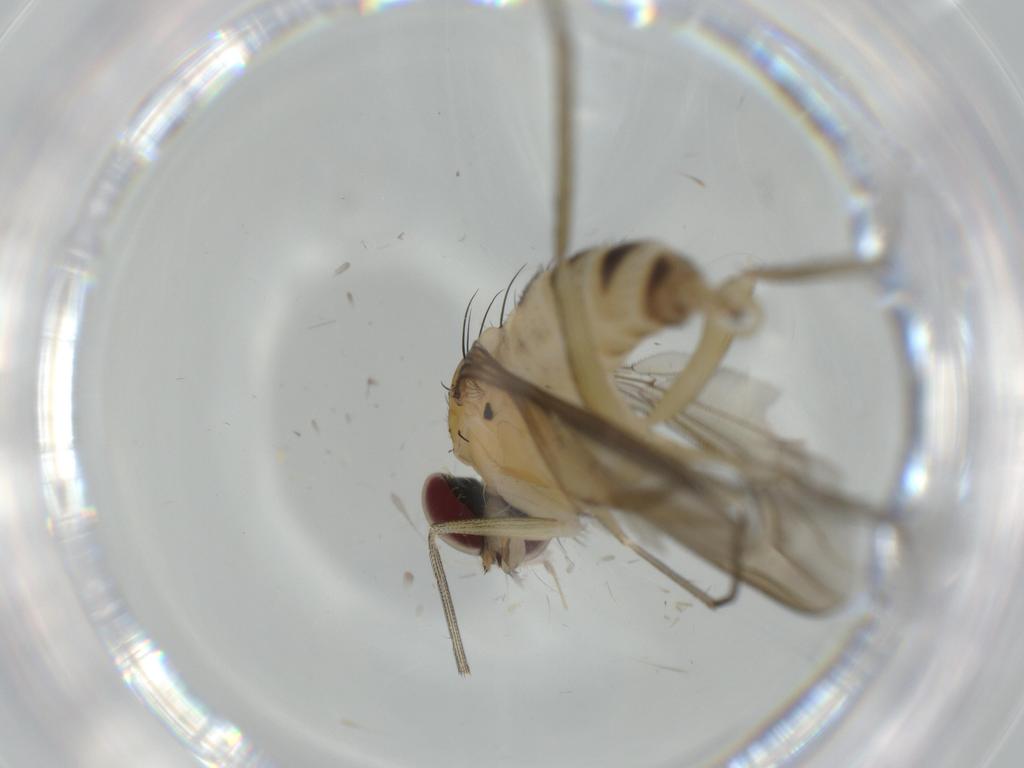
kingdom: Animalia
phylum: Arthropoda
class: Insecta
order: Diptera
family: Dolichopodidae
